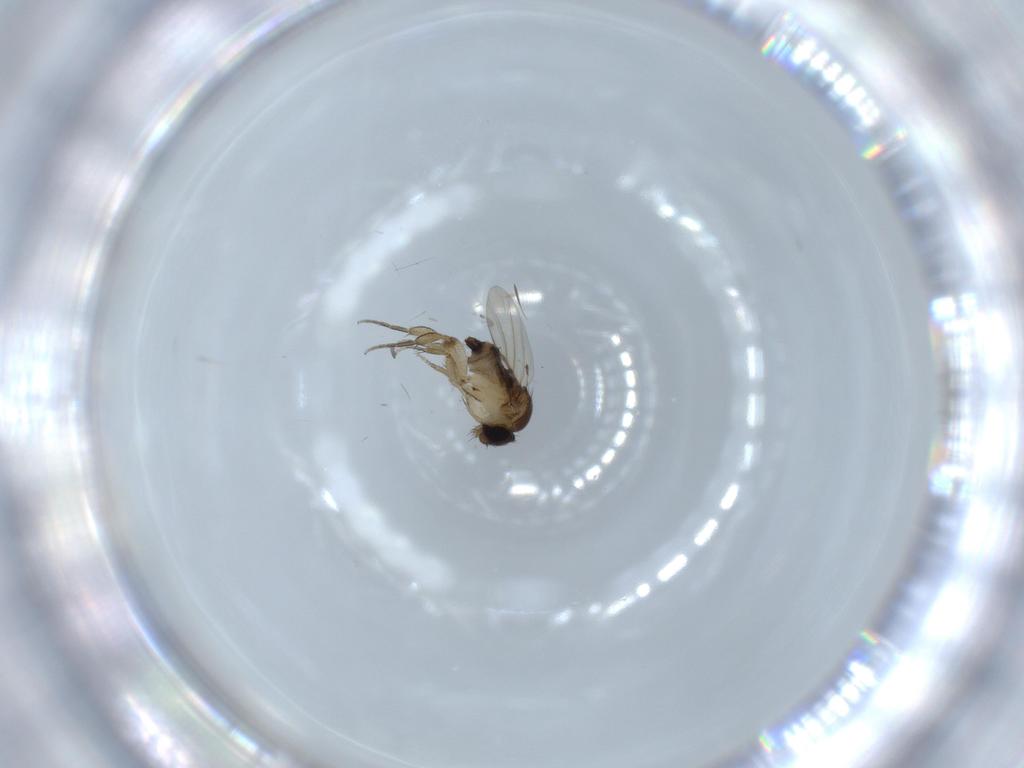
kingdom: Animalia
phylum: Arthropoda
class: Insecta
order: Diptera
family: Phoridae
